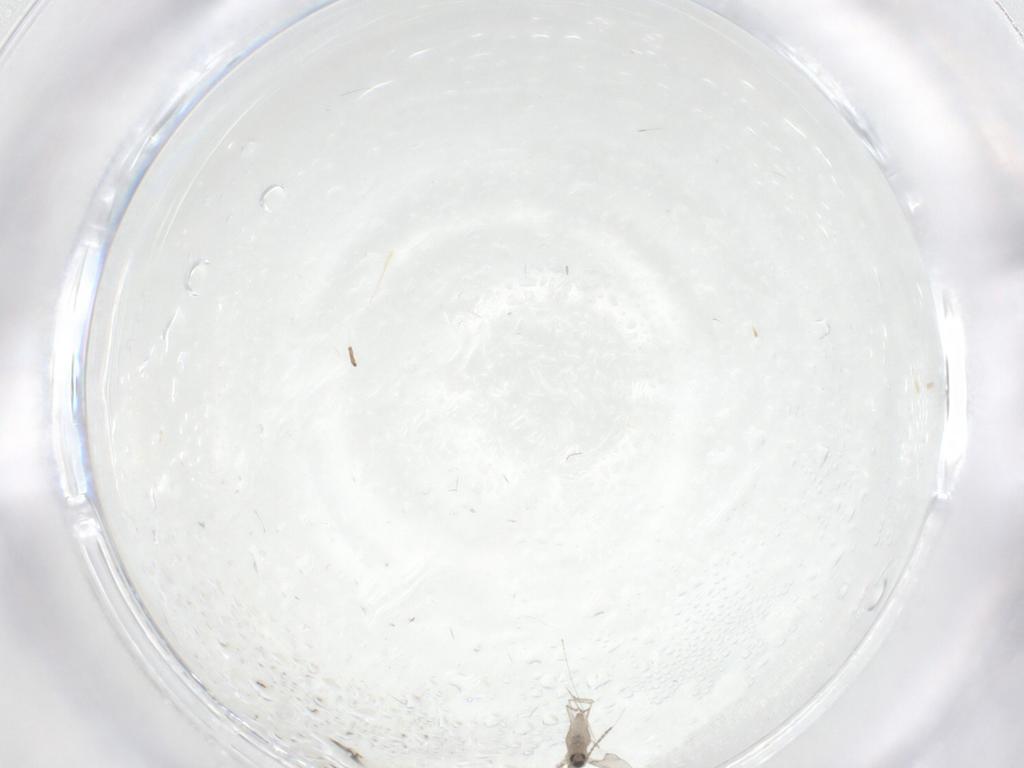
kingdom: Animalia
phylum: Arthropoda
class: Insecta
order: Diptera
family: Cecidomyiidae
